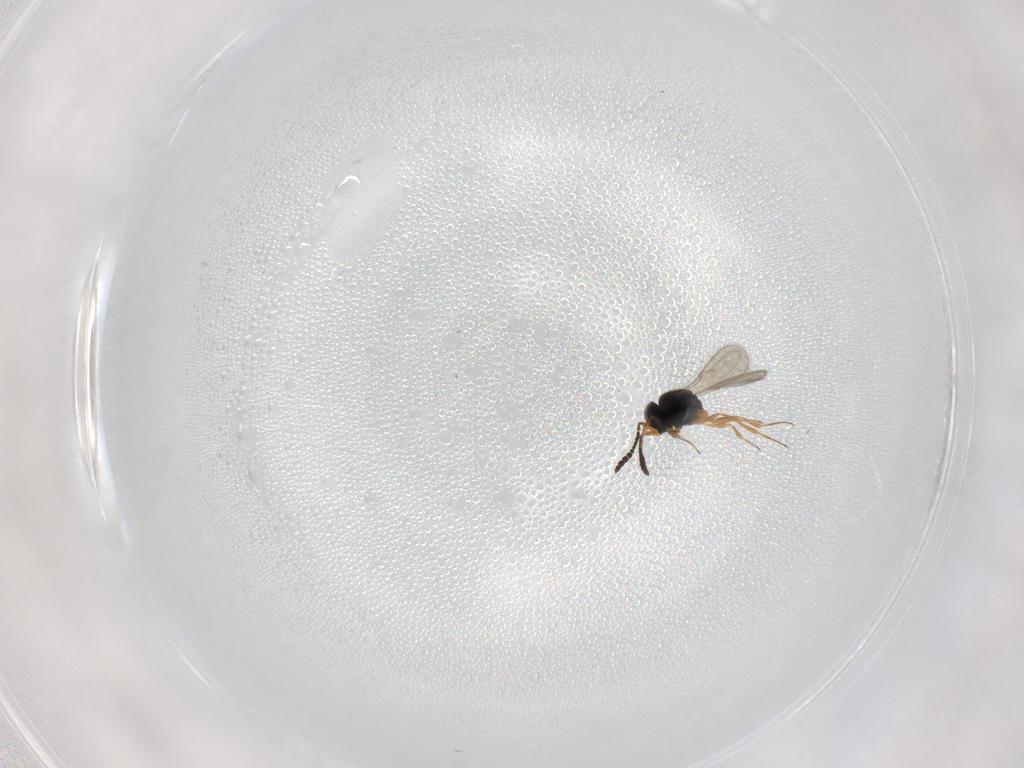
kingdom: Animalia
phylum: Arthropoda
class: Insecta
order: Hymenoptera
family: Scelionidae
